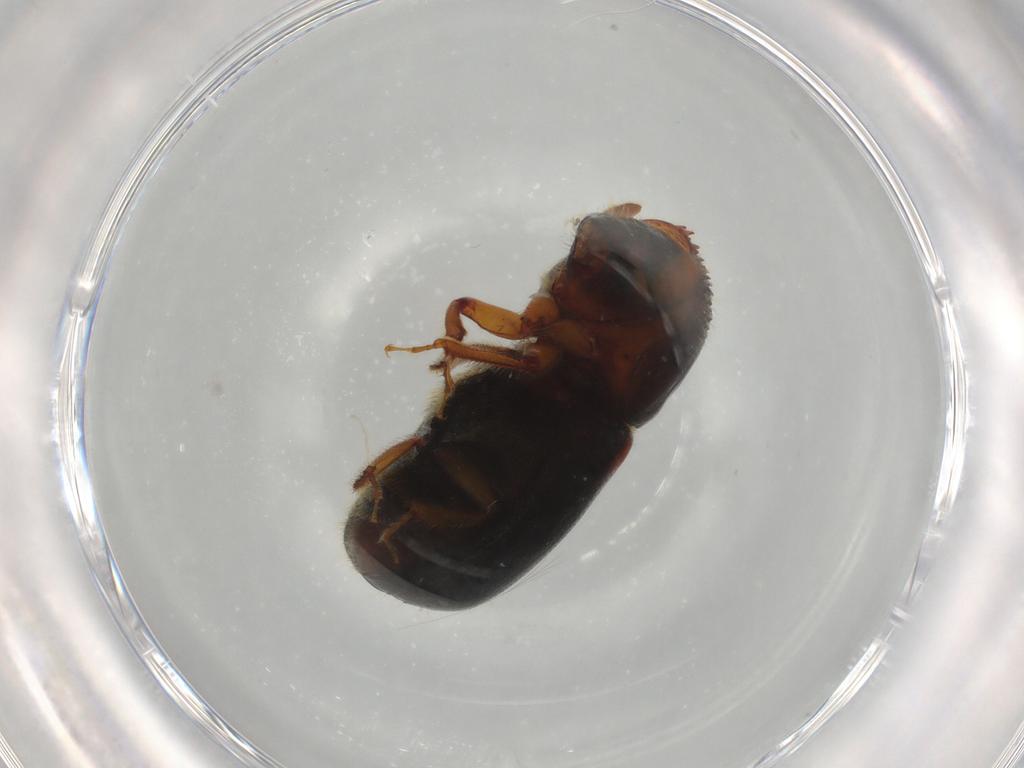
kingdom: Animalia
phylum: Arthropoda
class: Insecta
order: Coleoptera
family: Curculionidae
